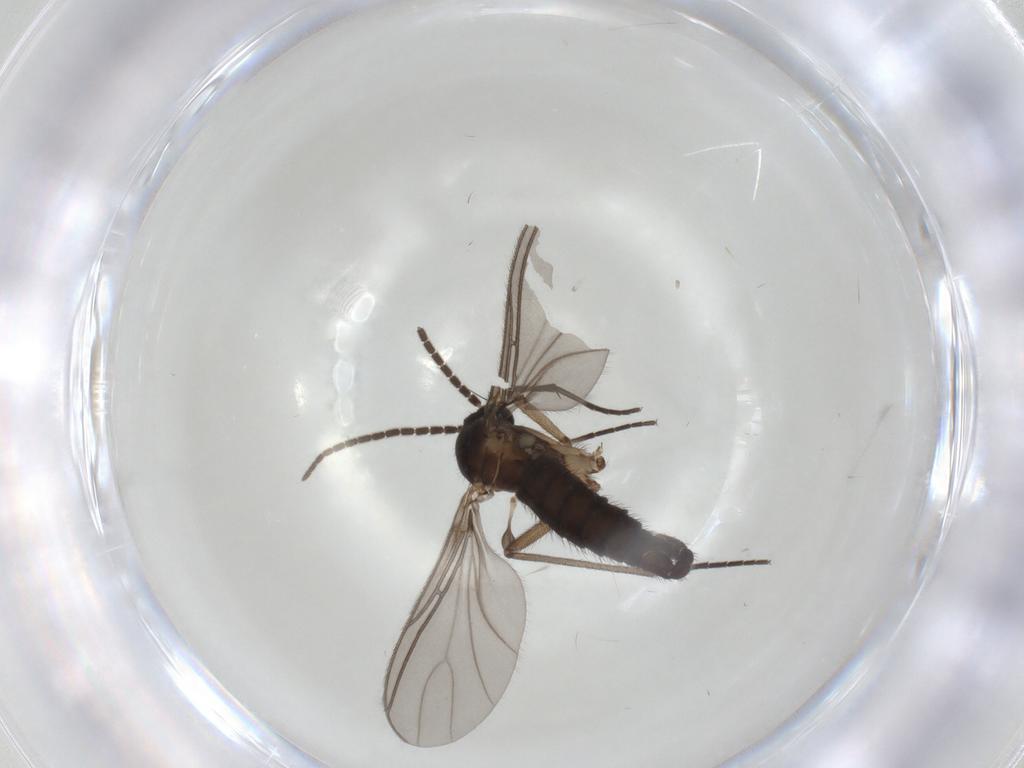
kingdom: Animalia
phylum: Arthropoda
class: Insecta
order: Diptera
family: Sciaridae
